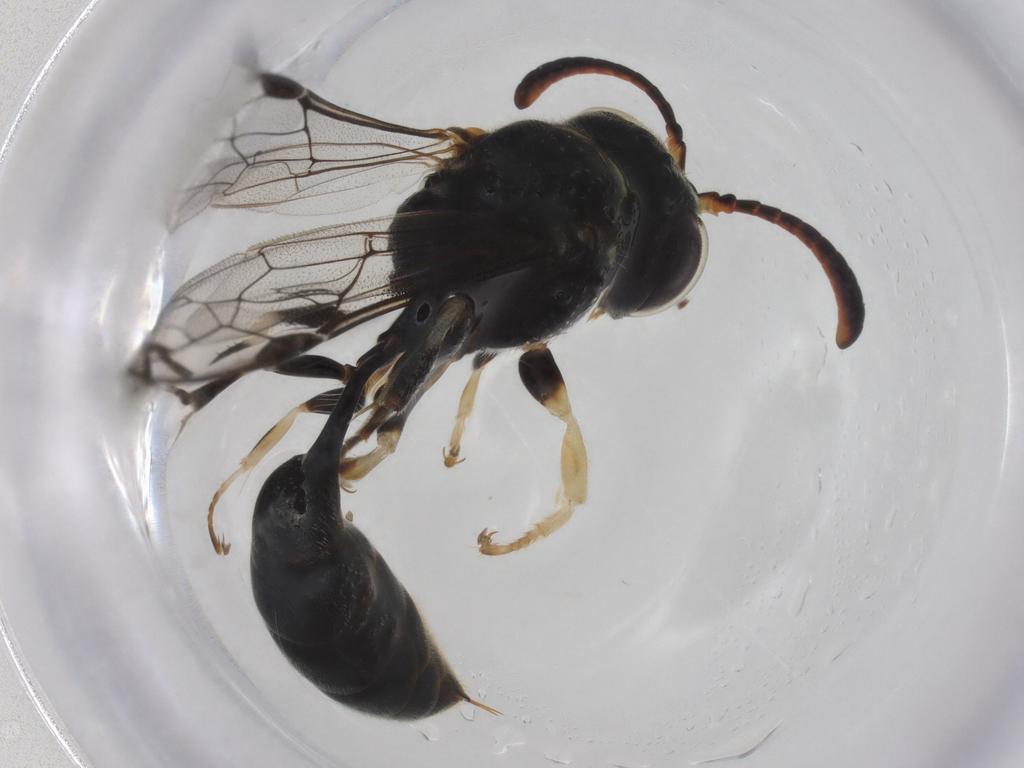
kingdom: Animalia
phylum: Arthropoda
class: Insecta
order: Hymenoptera
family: Crabronidae
